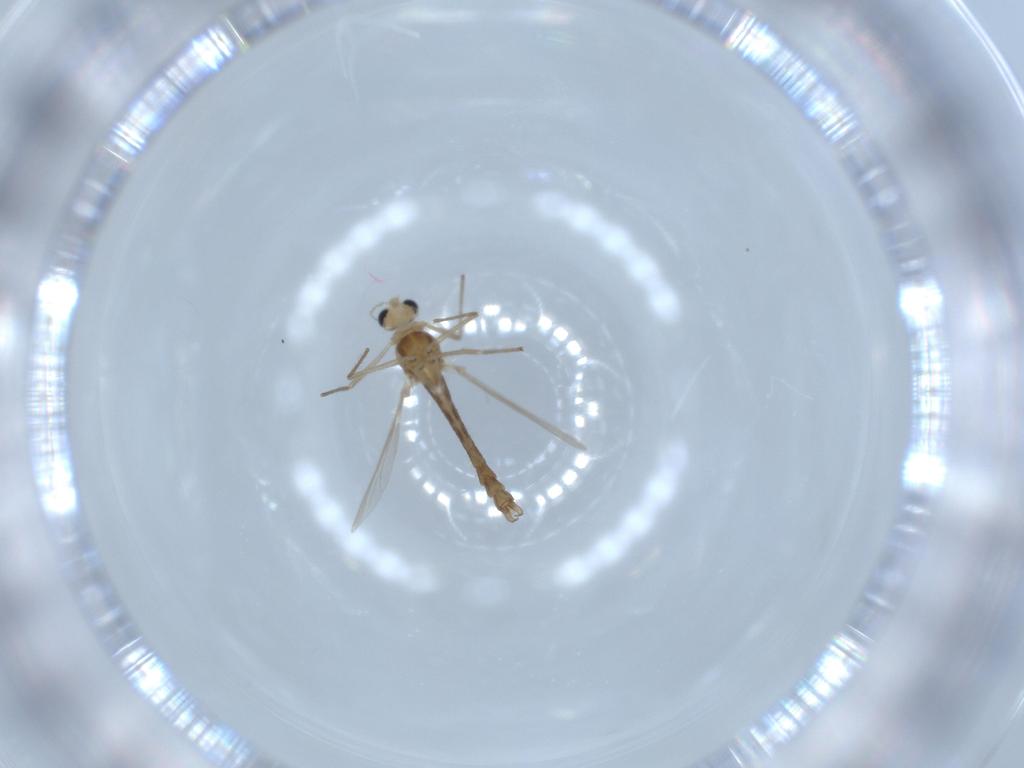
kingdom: Animalia
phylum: Arthropoda
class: Insecta
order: Diptera
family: Chironomidae
